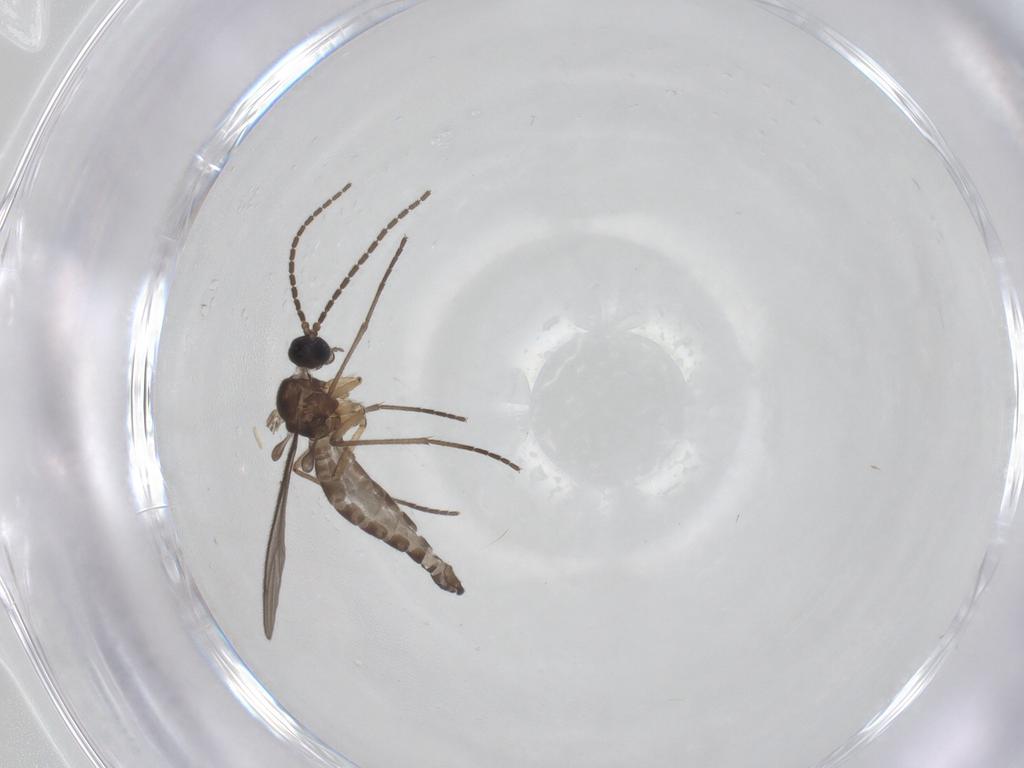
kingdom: Animalia
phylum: Arthropoda
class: Insecta
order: Diptera
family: Sciaridae
